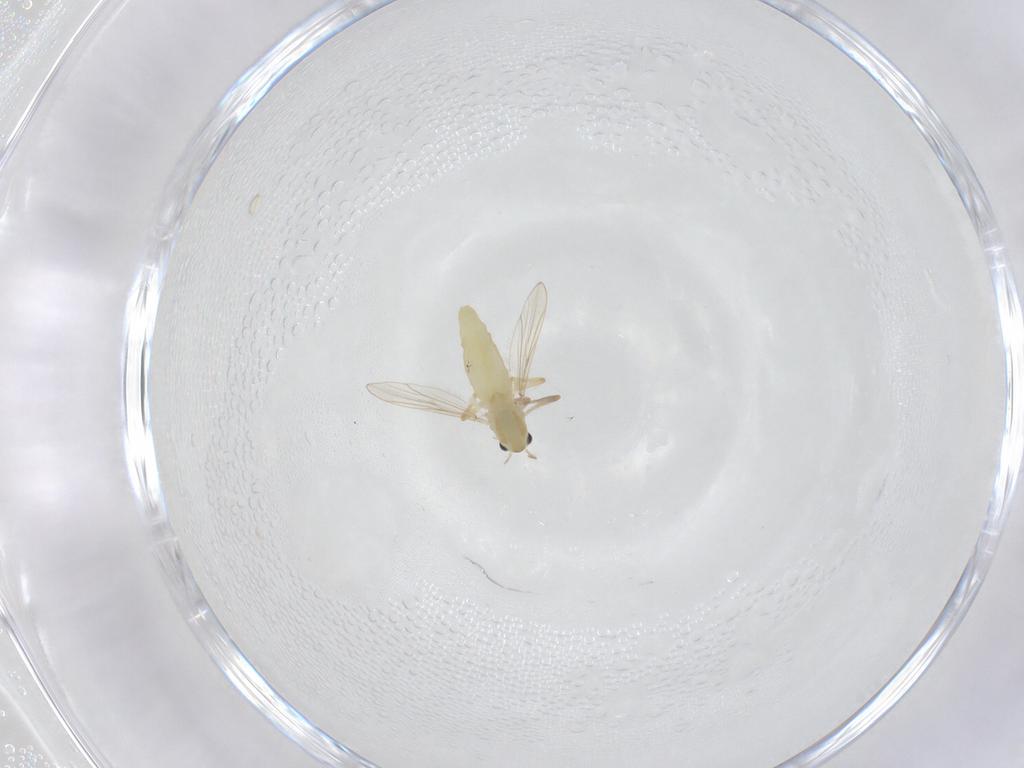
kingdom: Animalia
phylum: Arthropoda
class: Insecta
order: Diptera
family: Chironomidae
